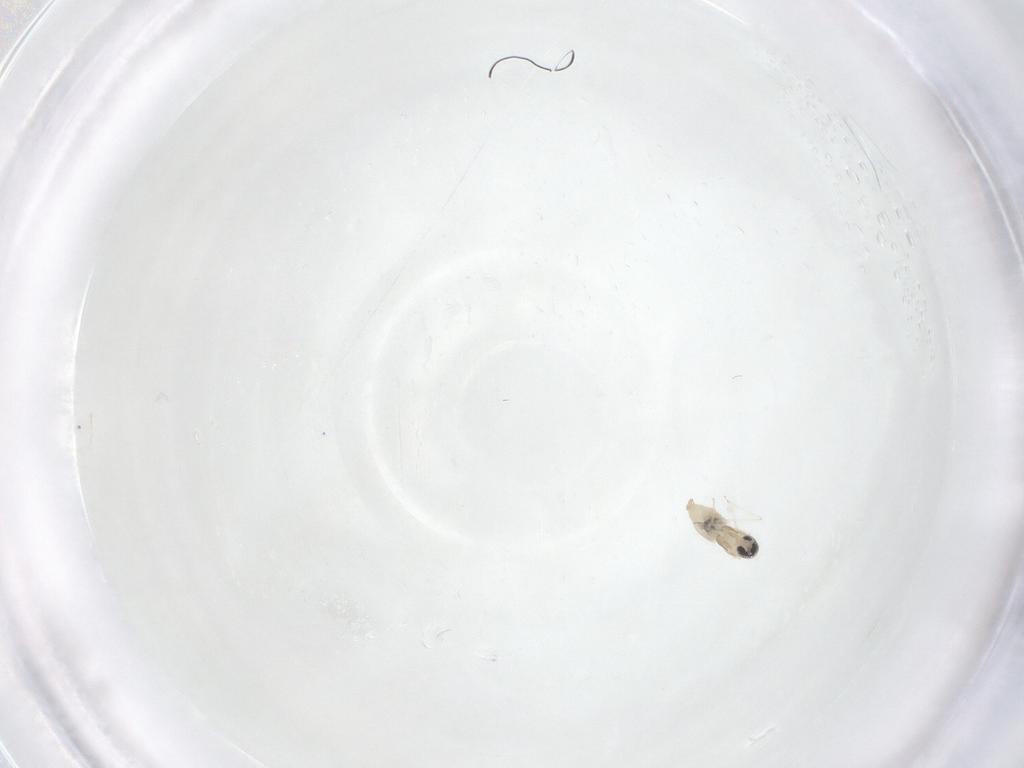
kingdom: Animalia
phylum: Arthropoda
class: Insecta
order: Diptera
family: Cecidomyiidae
